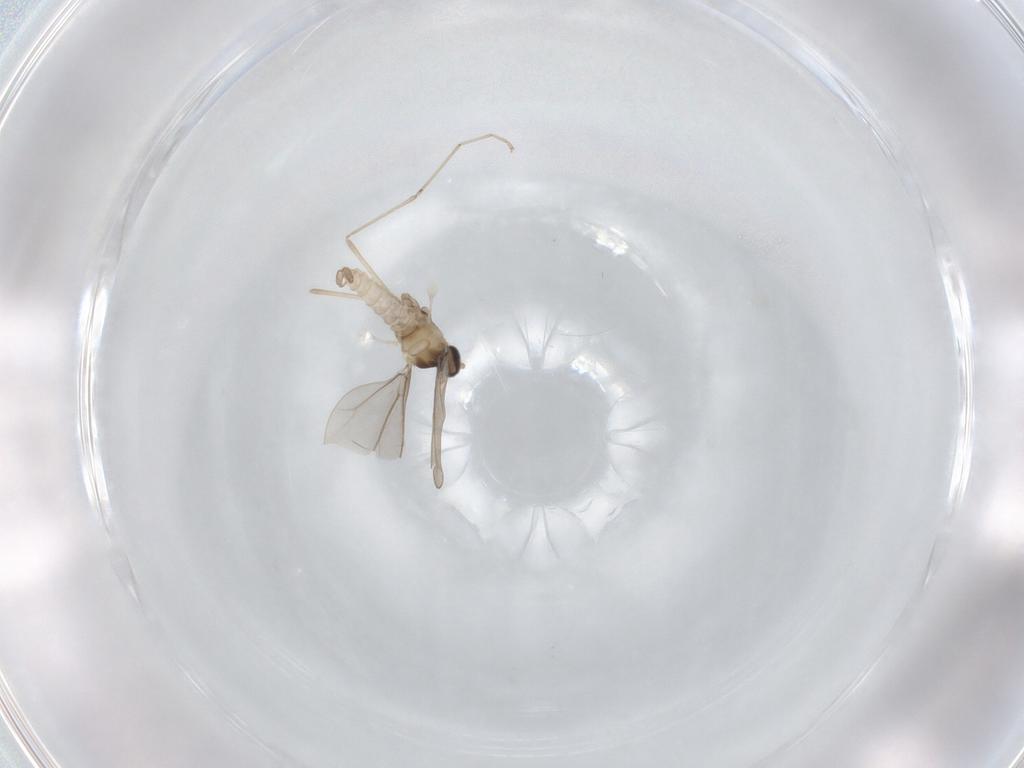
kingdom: Animalia
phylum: Arthropoda
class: Insecta
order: Diptera
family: Cecidomyiidae
